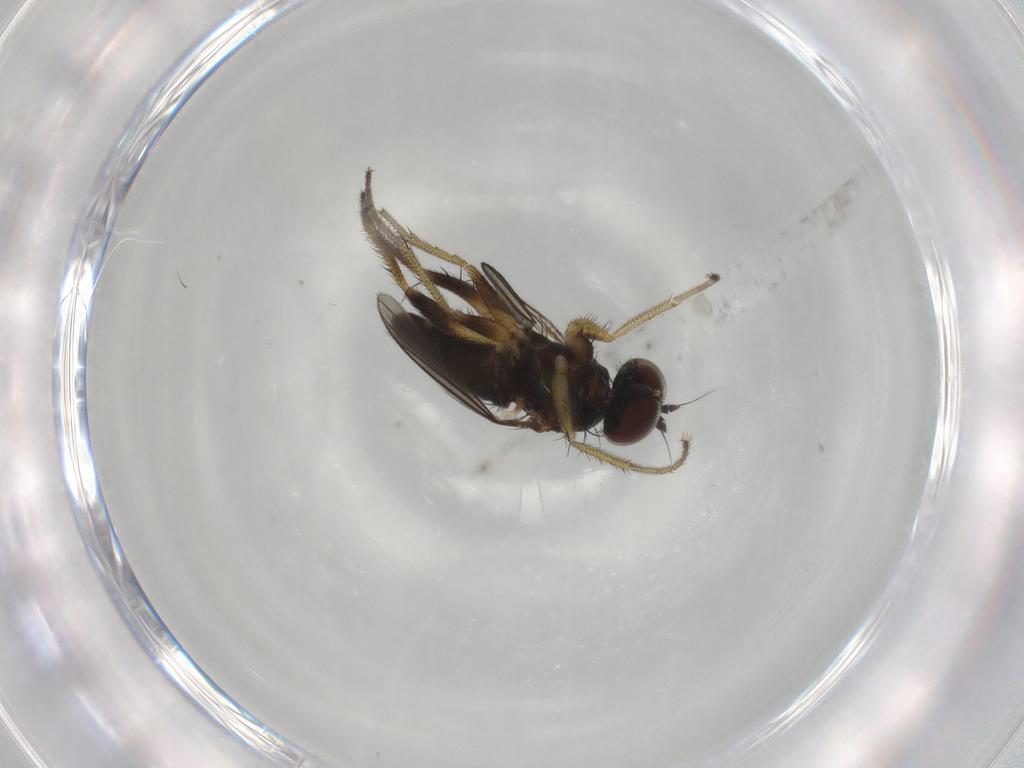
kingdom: Animalia
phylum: Arthropoda
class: Insecta
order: Diptera
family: Dolichopodidae
